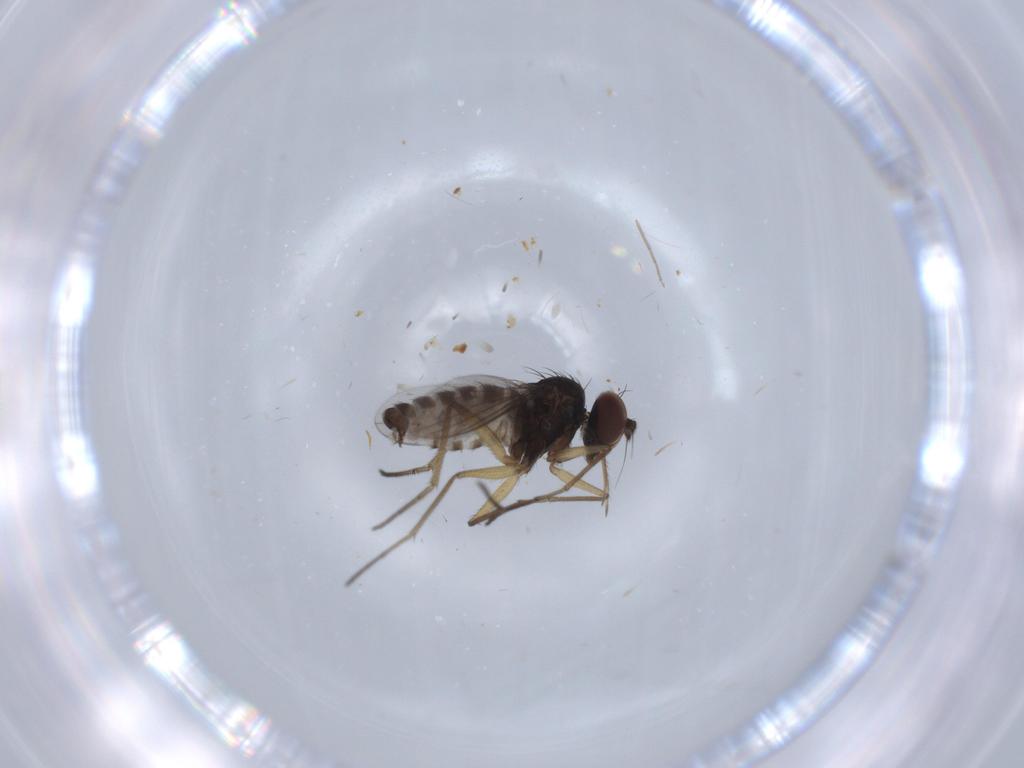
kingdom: Animalia
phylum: Arthropoda
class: Insecta
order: Diptera
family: Dolichopodidae
